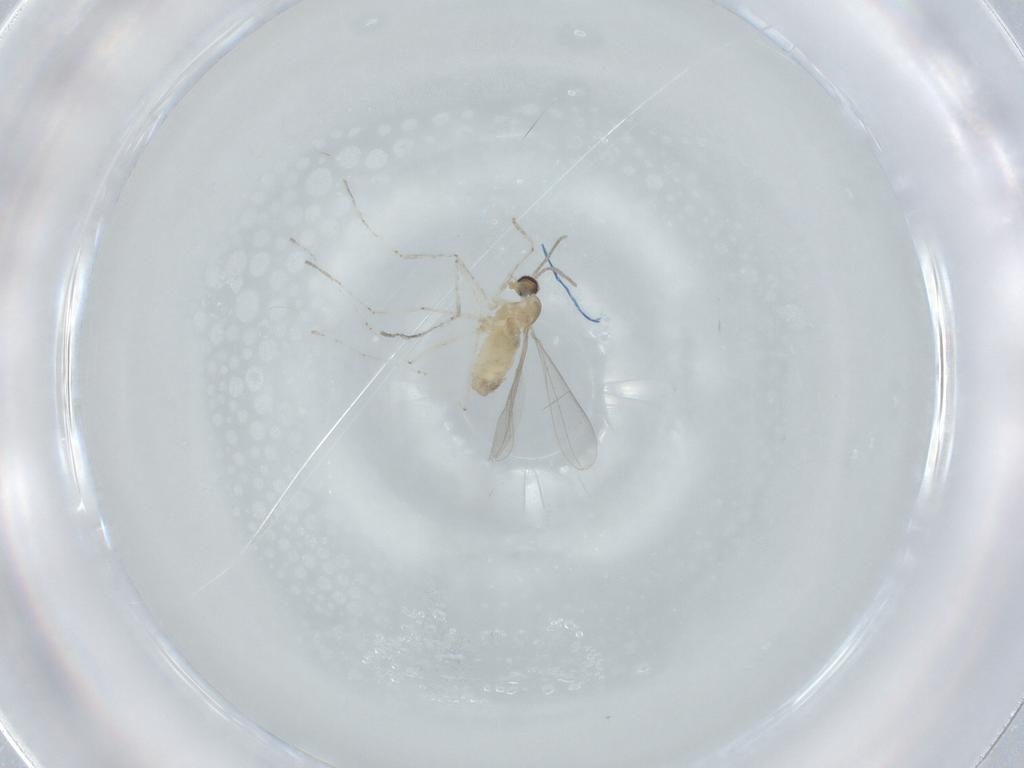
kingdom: Animalia
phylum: Arthropoda
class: Insecta
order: Diptera
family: Cecidomyiidae
